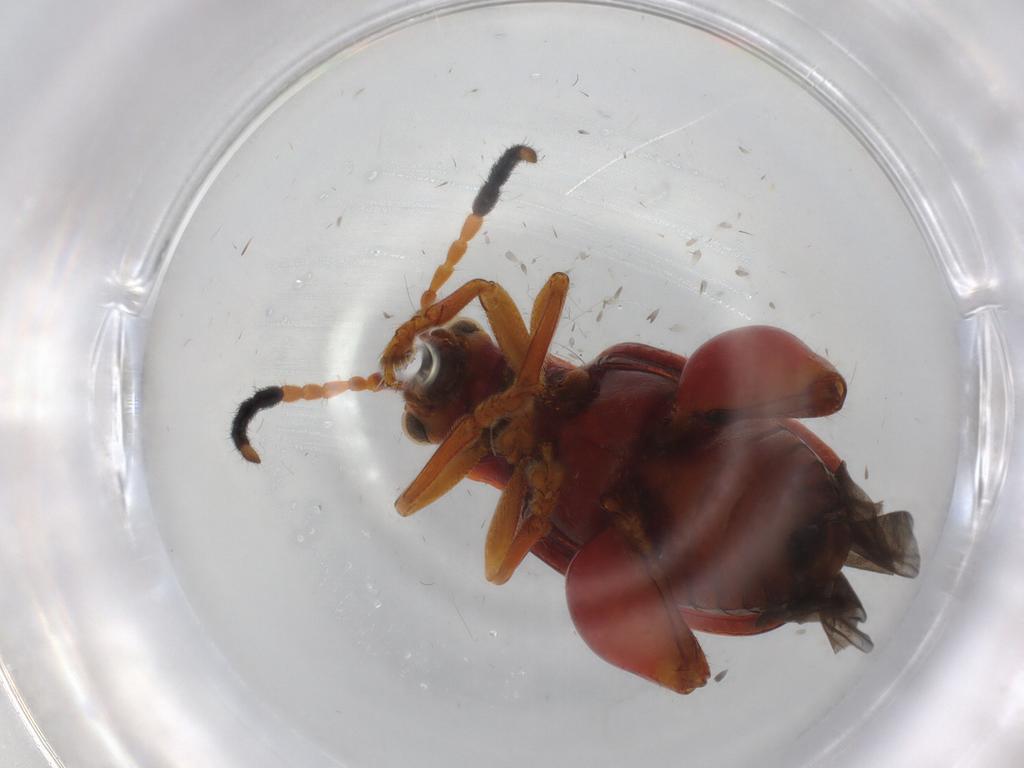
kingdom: Animalia
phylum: Arthropoda
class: Insecta
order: Coleoptera
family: Chrysomelidae
